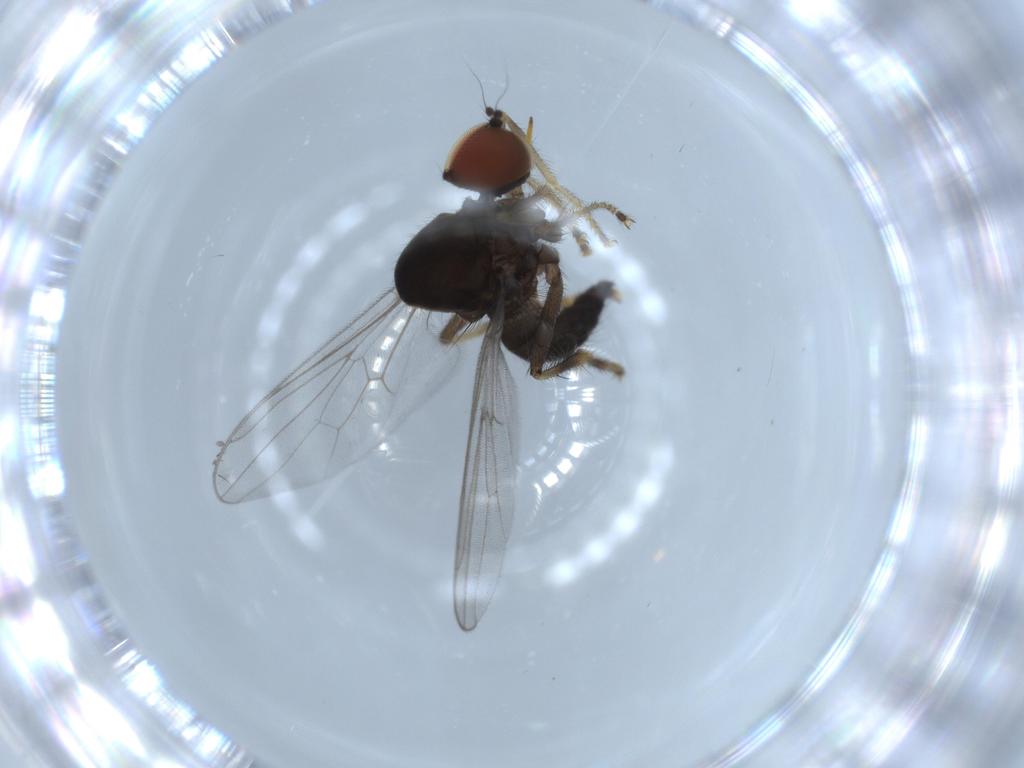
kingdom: Animalia
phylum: Arthropoda
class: Insecta
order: Diptera
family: Hybotidae
